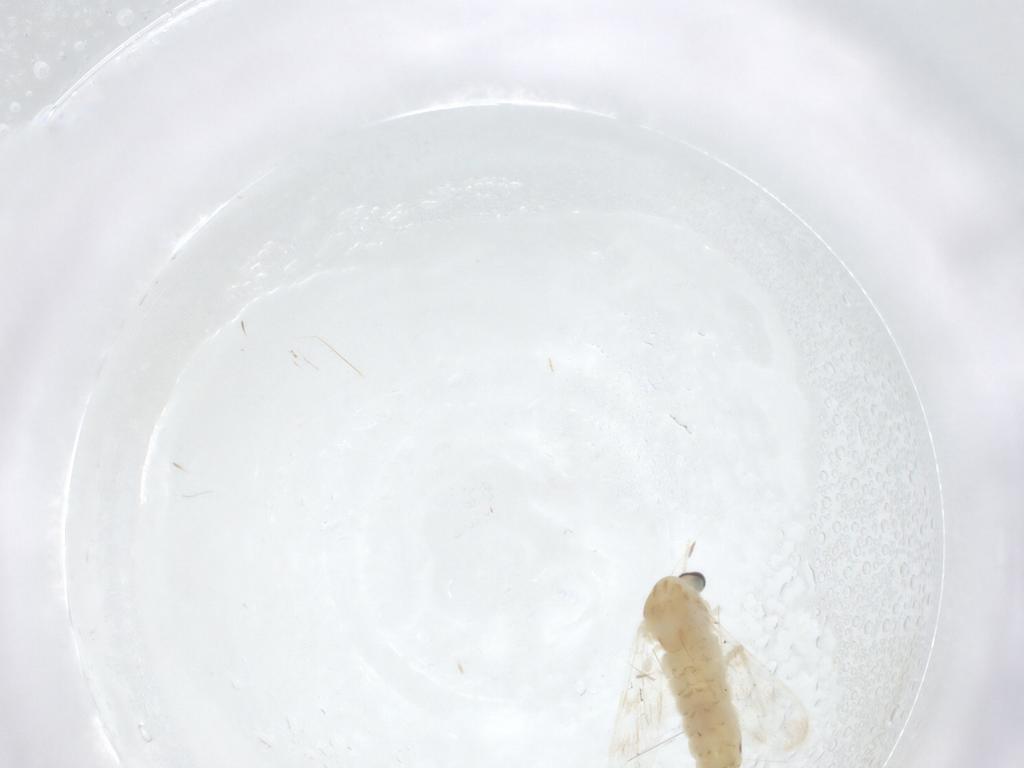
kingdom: Animalia
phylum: Arthropoda
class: Insecta
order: Diptera
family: Chironomidae
